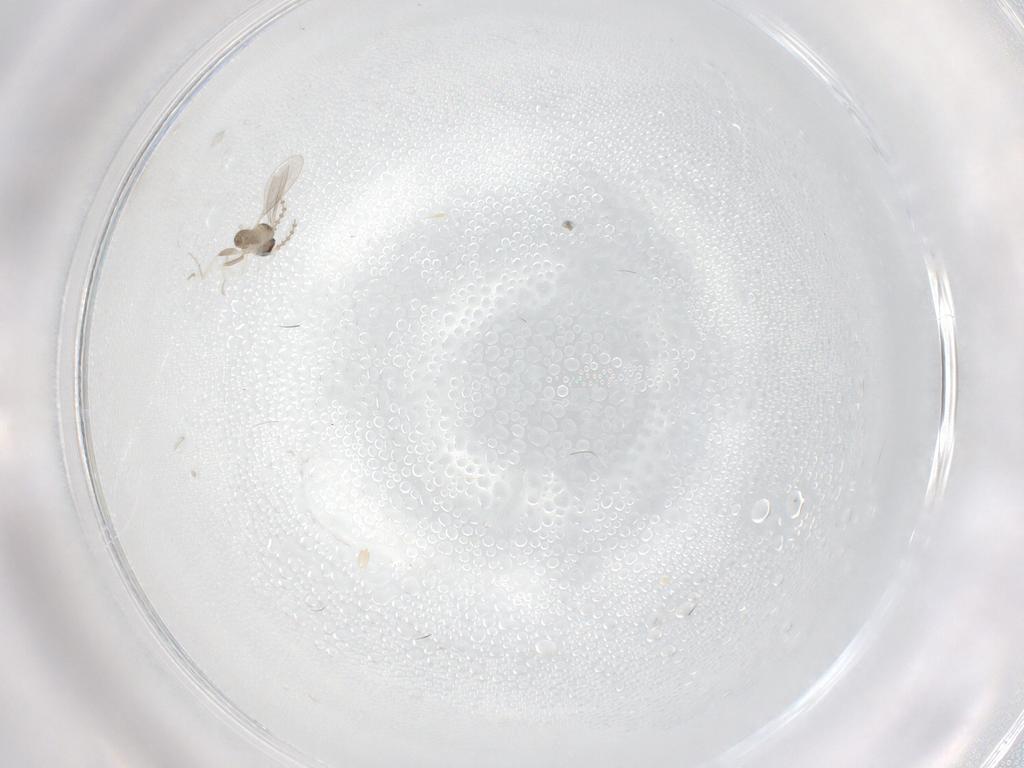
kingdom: Animalia
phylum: Arthropoda
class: Insecta
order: Diptera
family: Cecidomyiidae
